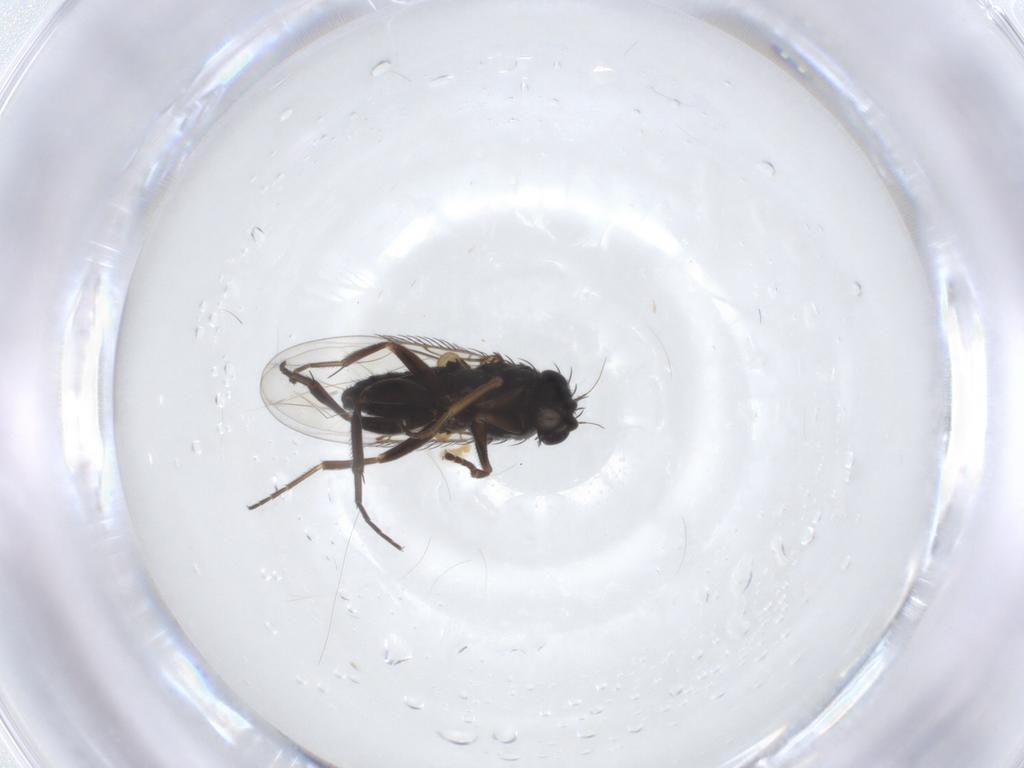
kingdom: Animalia
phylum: Arthropoda
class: Insecta
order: Diptera
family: Phoridae
